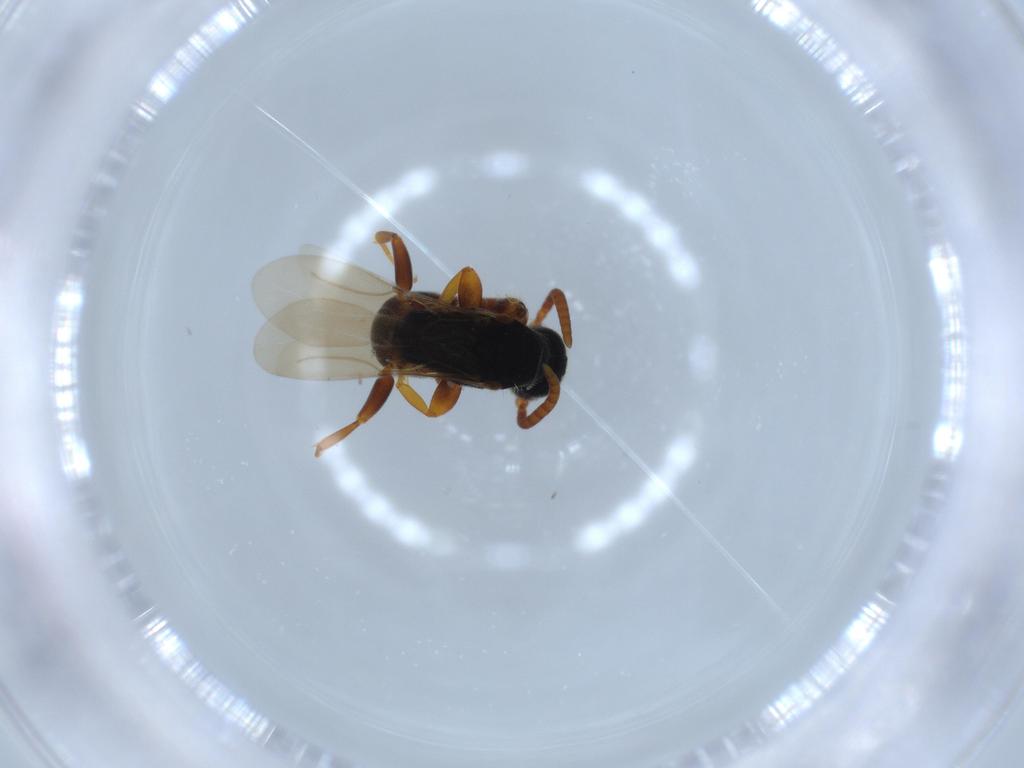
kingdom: Animalia
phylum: Arthropoda
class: Insecta
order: Hymenoptera
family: Bethylidae
